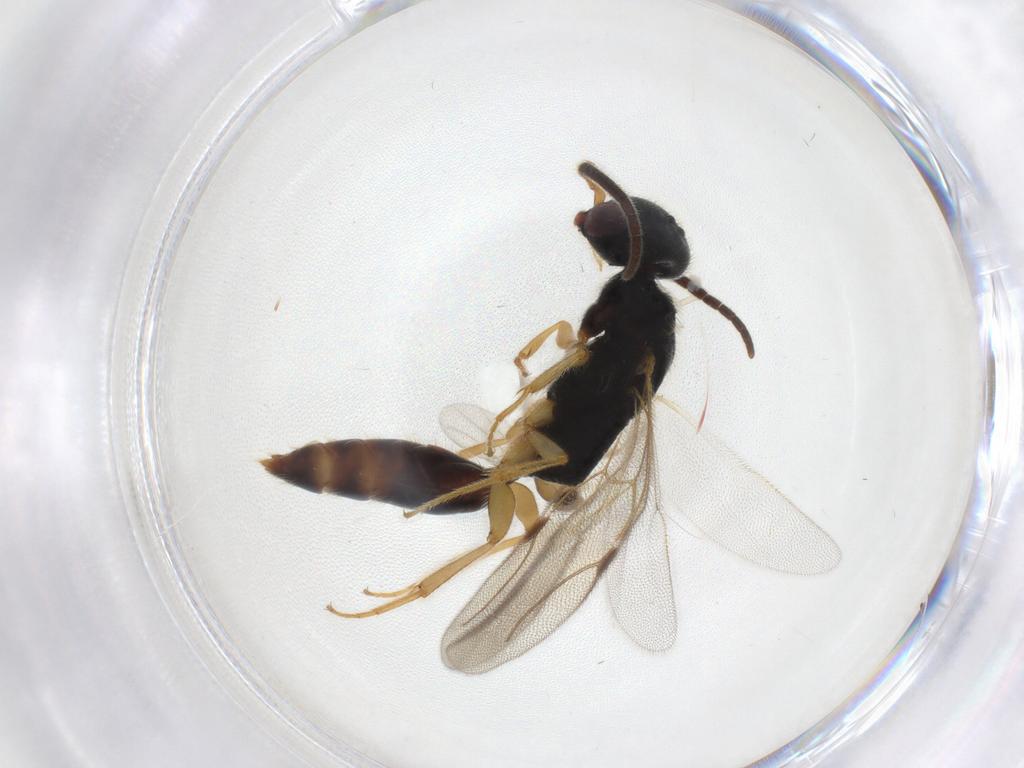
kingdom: Animalia
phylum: Arthropoda
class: Insecta
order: Hymenoptera
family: Bethylidae
